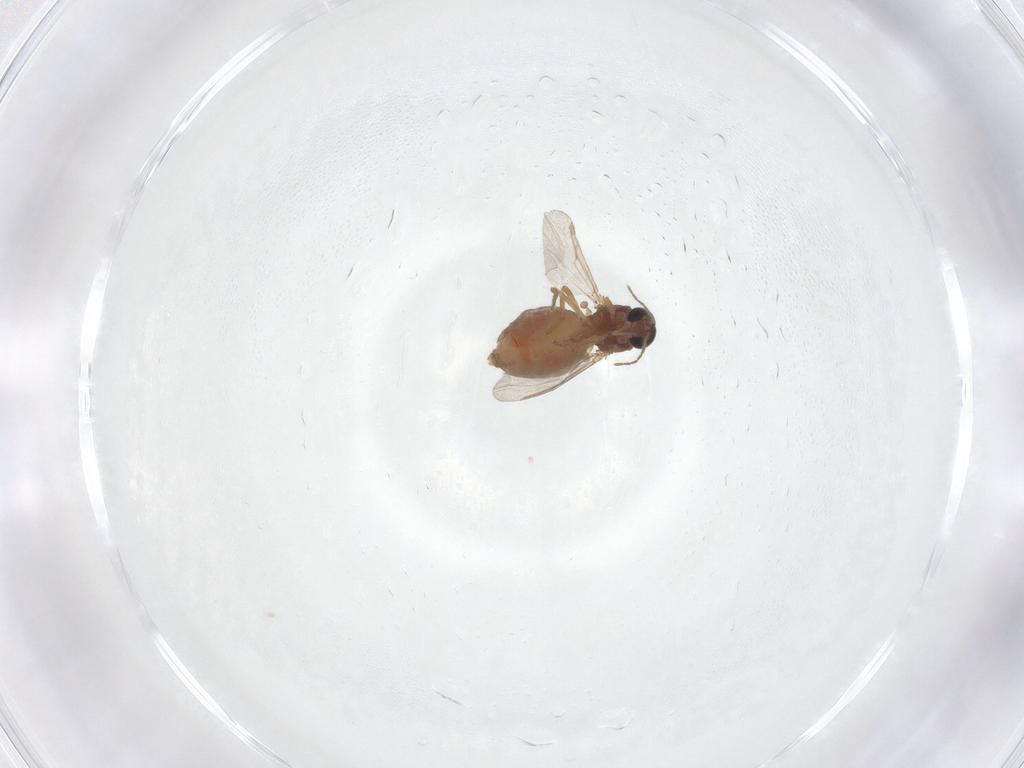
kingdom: Animalia
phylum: Arthropoda
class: Insecta
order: Diptera
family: Ceratopogonidae
